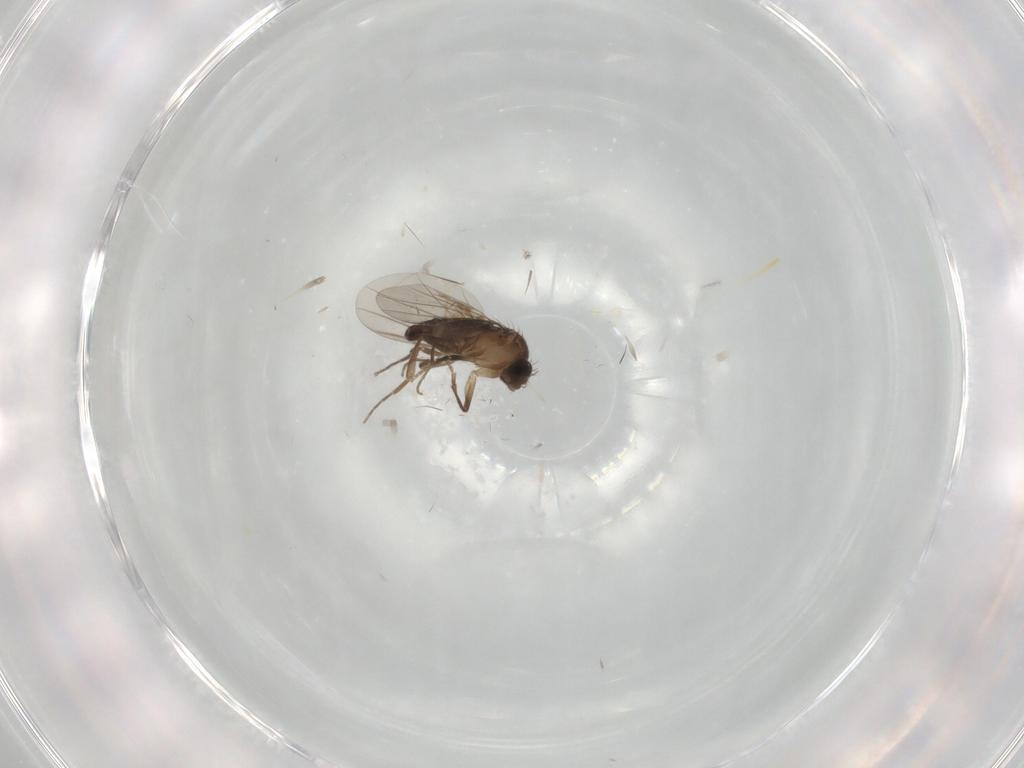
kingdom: Animalia
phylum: Arthropoda
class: Insecta
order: Diptera
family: Phoridae
